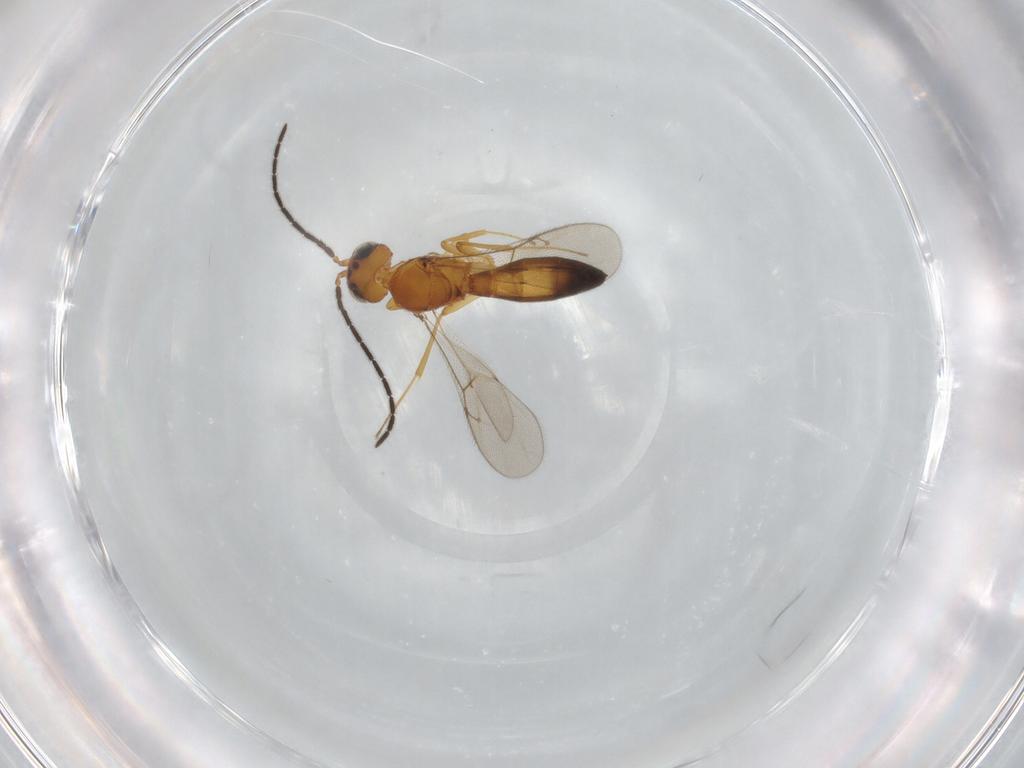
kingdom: Animalia
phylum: Arthropoda
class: Insecta
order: Hymenoptera
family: Scelionidae
